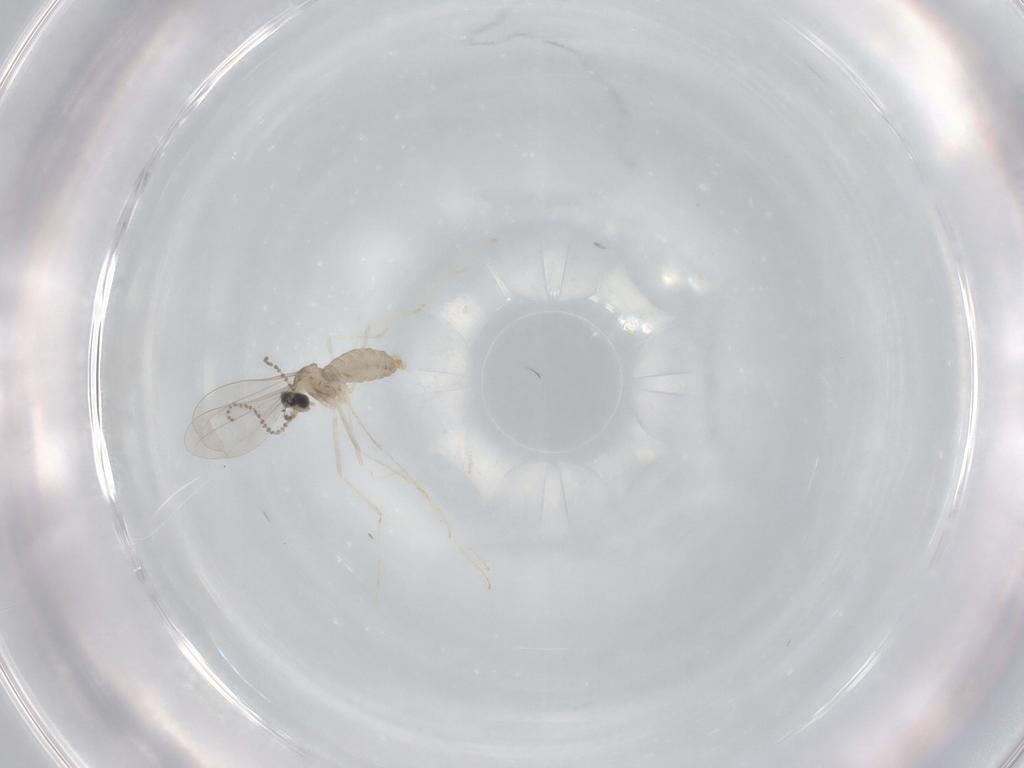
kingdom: Animalia
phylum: Arthropoda
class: Insecta
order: Diptera
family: Cecidomyiidae
